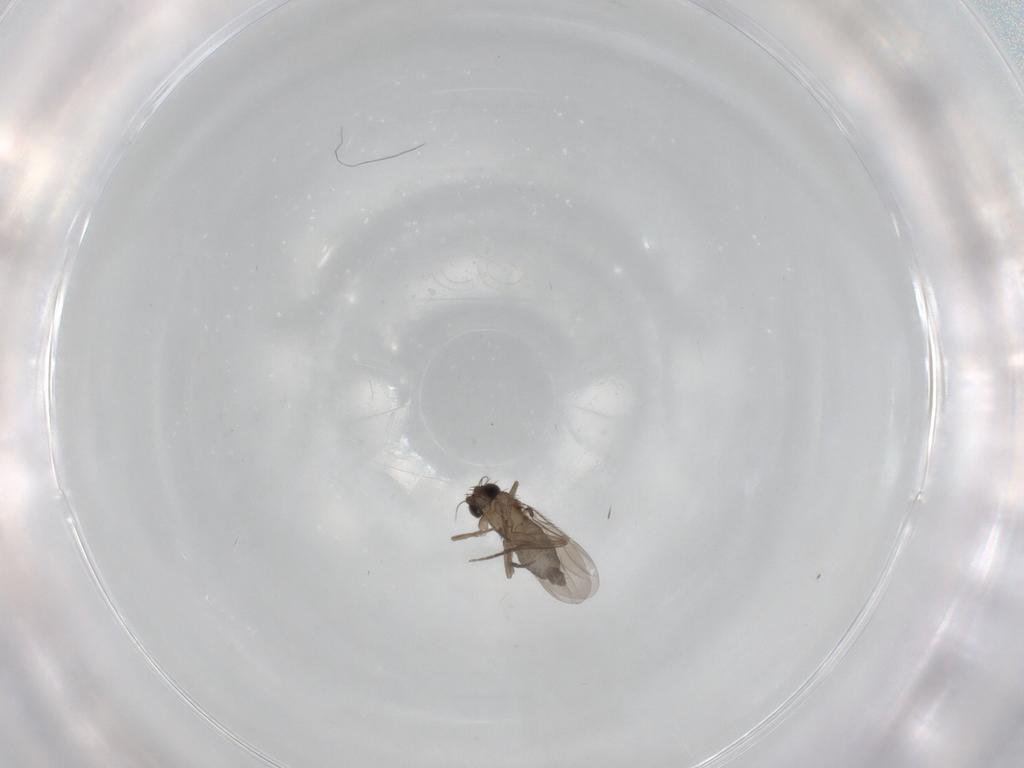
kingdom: Animalia
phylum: Arthropoda
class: Insecta
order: Diptera
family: Phoridae
